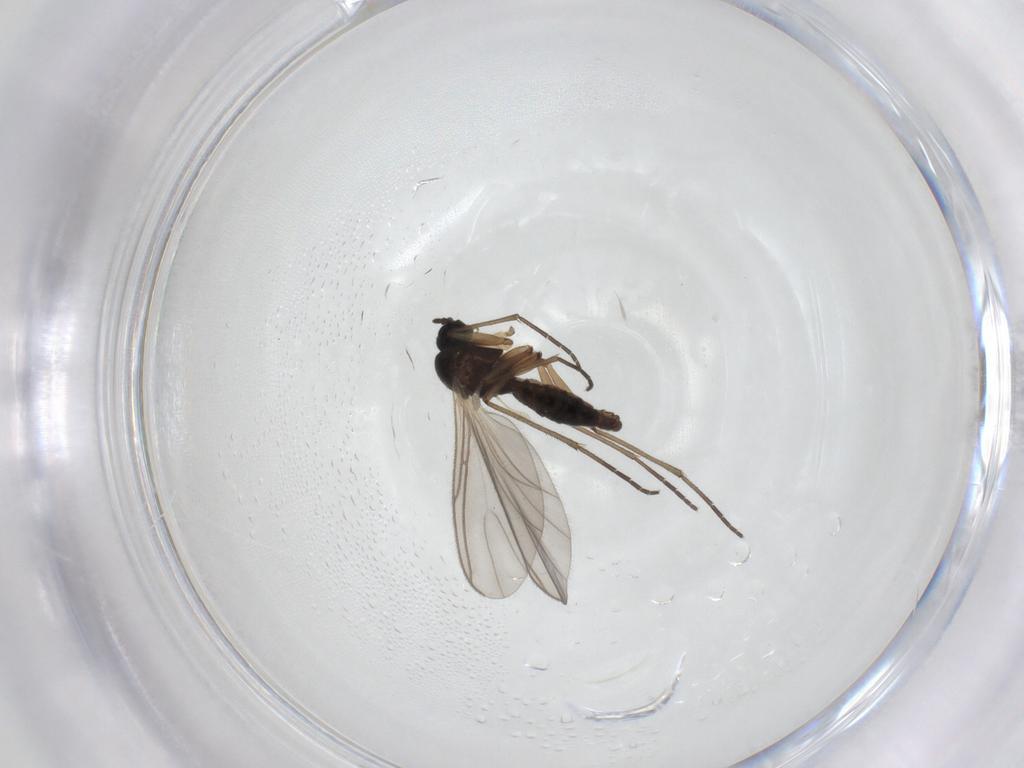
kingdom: Animalia
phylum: Arthropoda
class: Insecta
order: Diptera
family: Sciaridae
